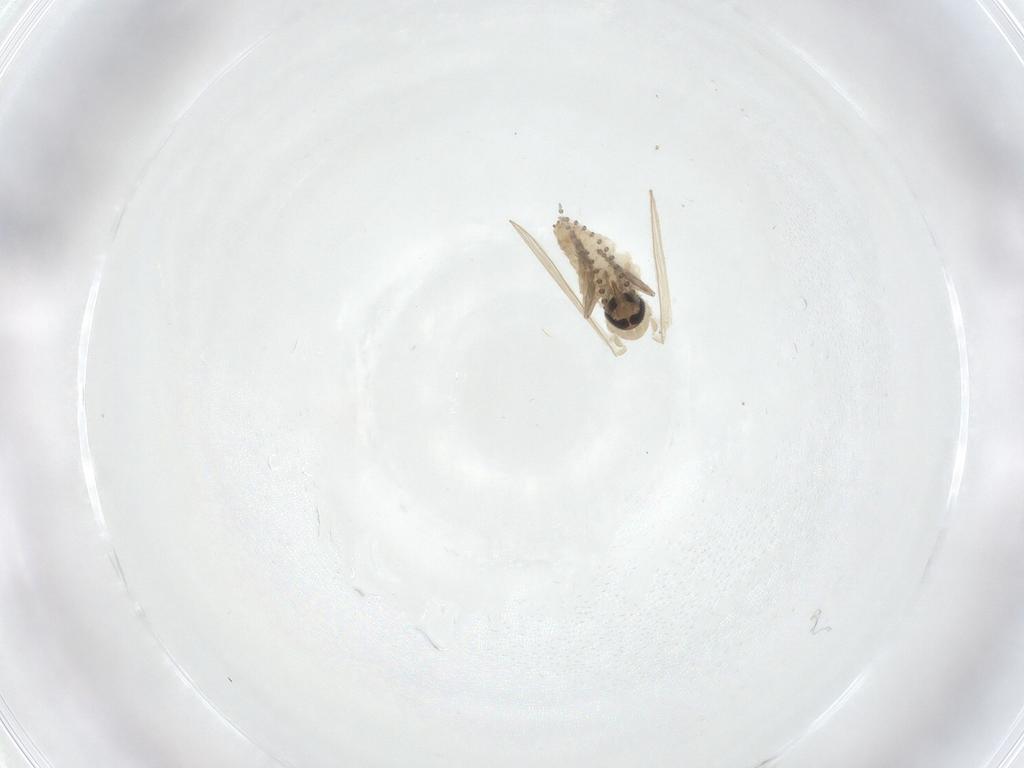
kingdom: Animalia
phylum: Arthropoda
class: Insecta
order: Diptera
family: Psychodidae
